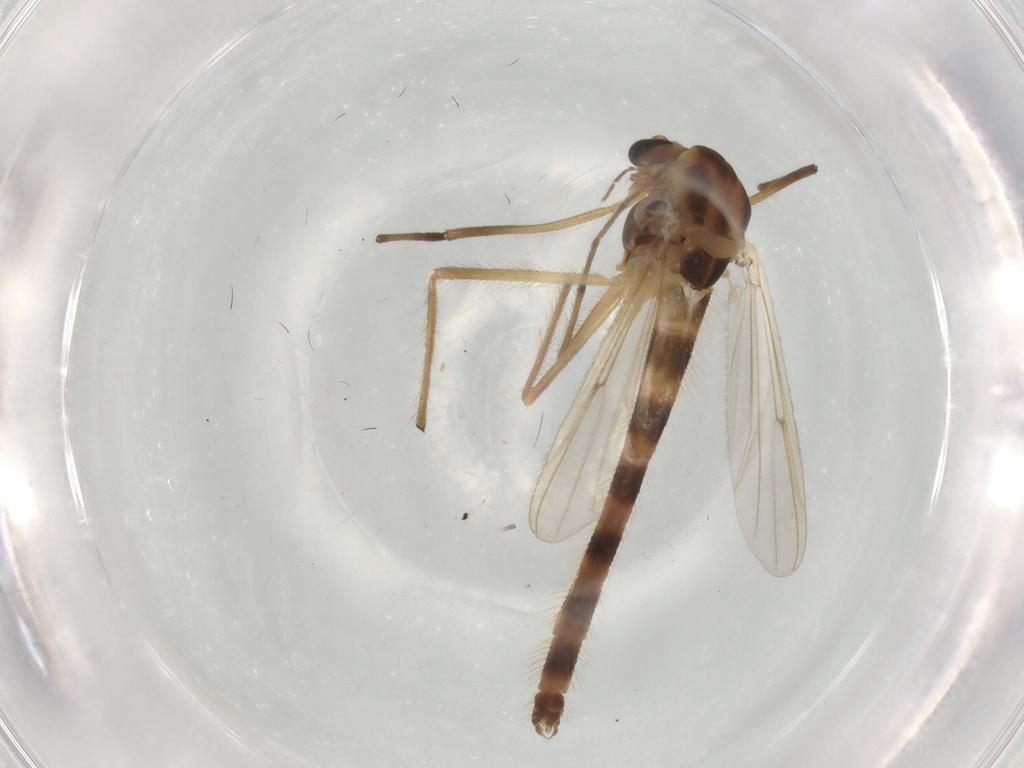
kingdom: Animalia
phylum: Arthropoda
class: Insecta
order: Diptera
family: Ceratopogonidae
